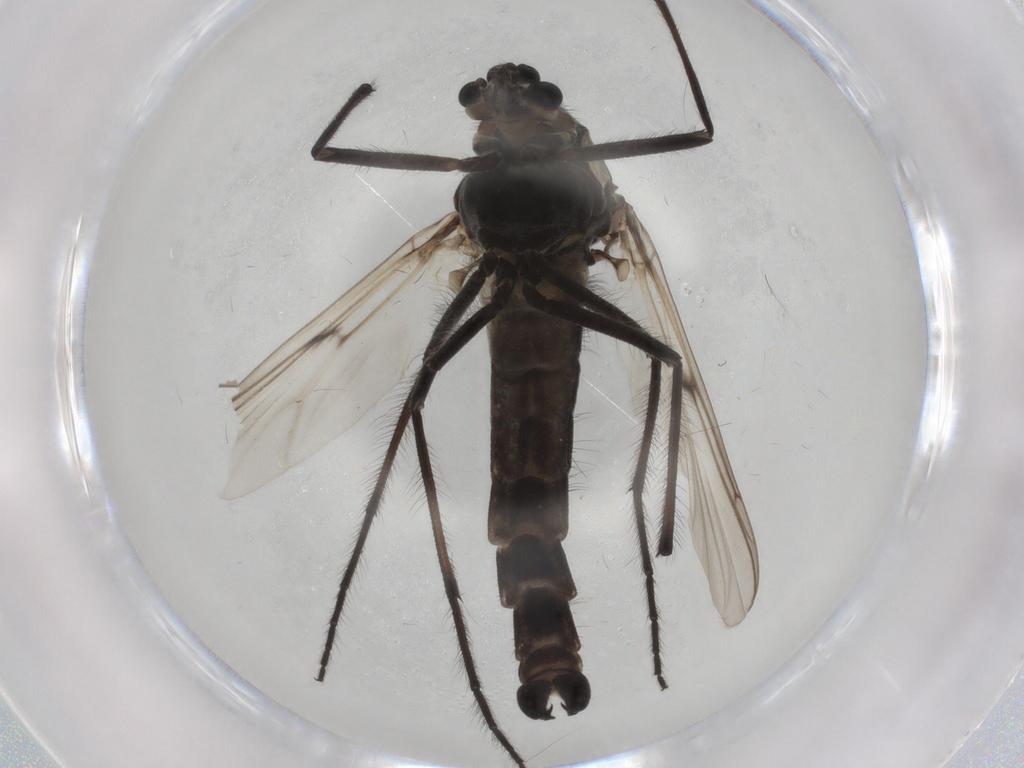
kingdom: Animalia
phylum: Arthropoda
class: Insecta
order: Diptera
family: Chironomidae
